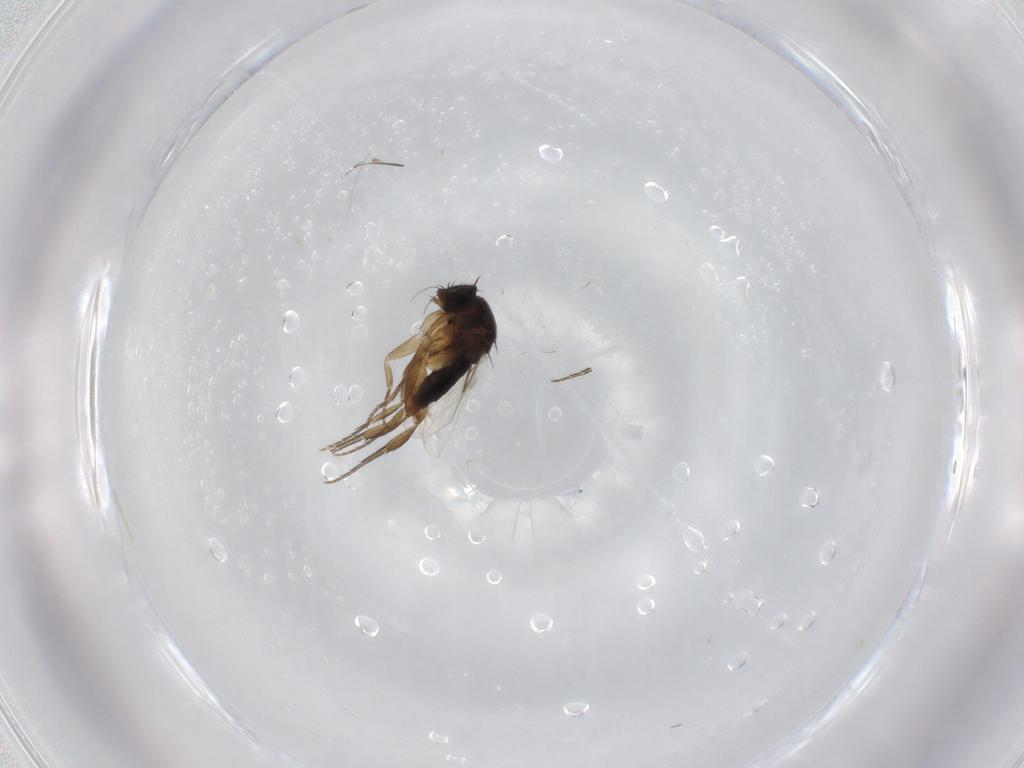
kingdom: Animalia
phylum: Arthropoda
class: Insecta
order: Diptera
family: Phoridae
